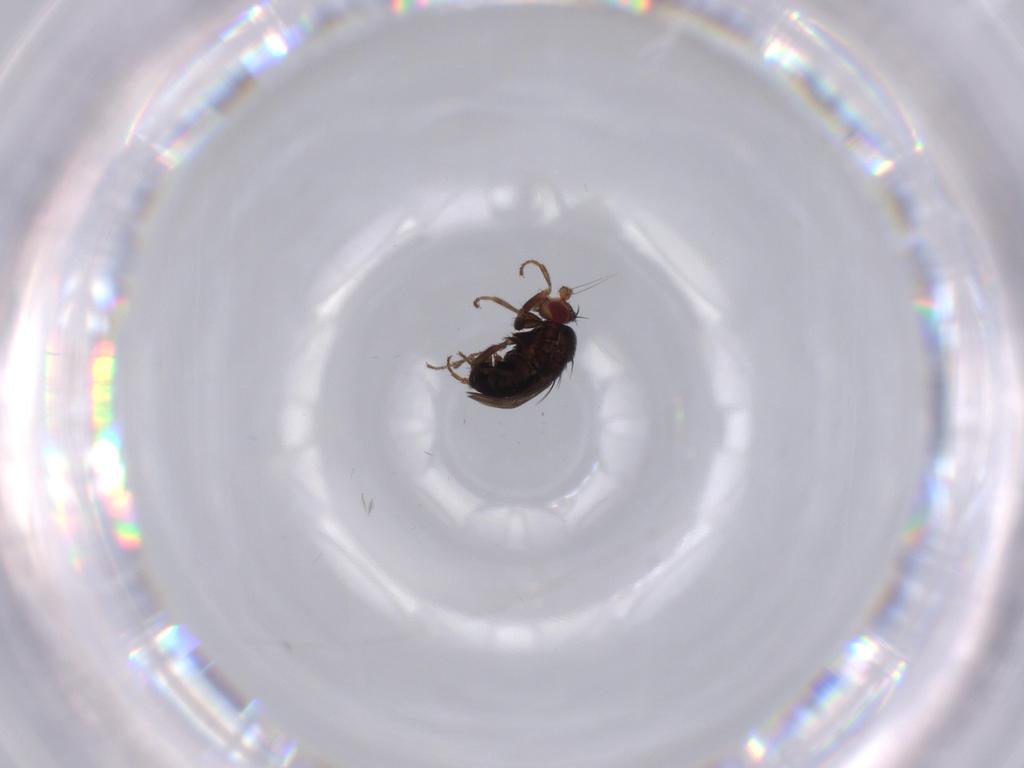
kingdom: Animalia
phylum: Arthropoda
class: Insecta
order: Diptera
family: Sphaeroceridae
